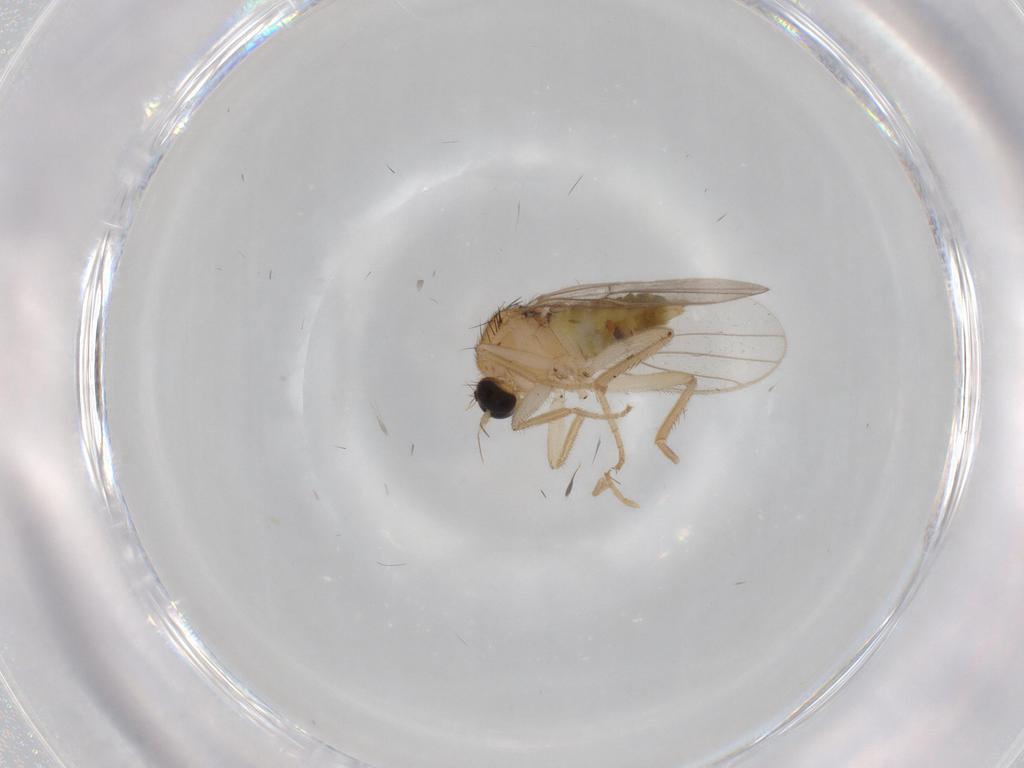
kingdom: Animalia
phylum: Arthropoda
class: Insecta
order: Diptera
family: Hybotidae
